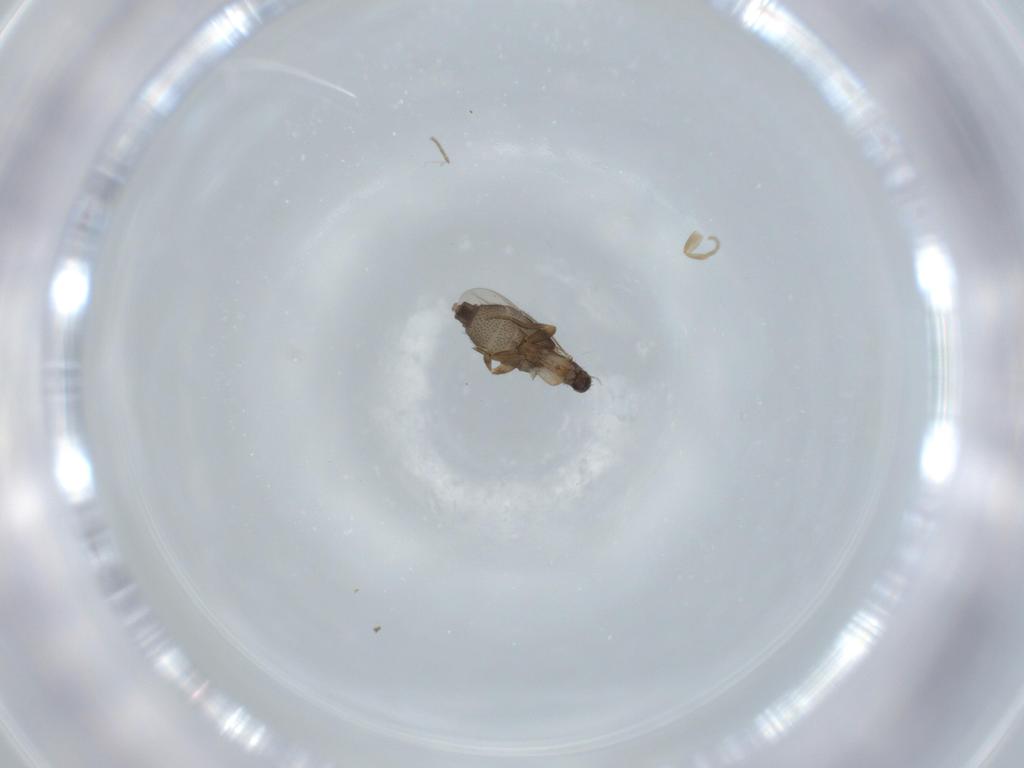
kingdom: Animalia
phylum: Arthropoda
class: Insecta
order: Diptera
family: Phoridae
